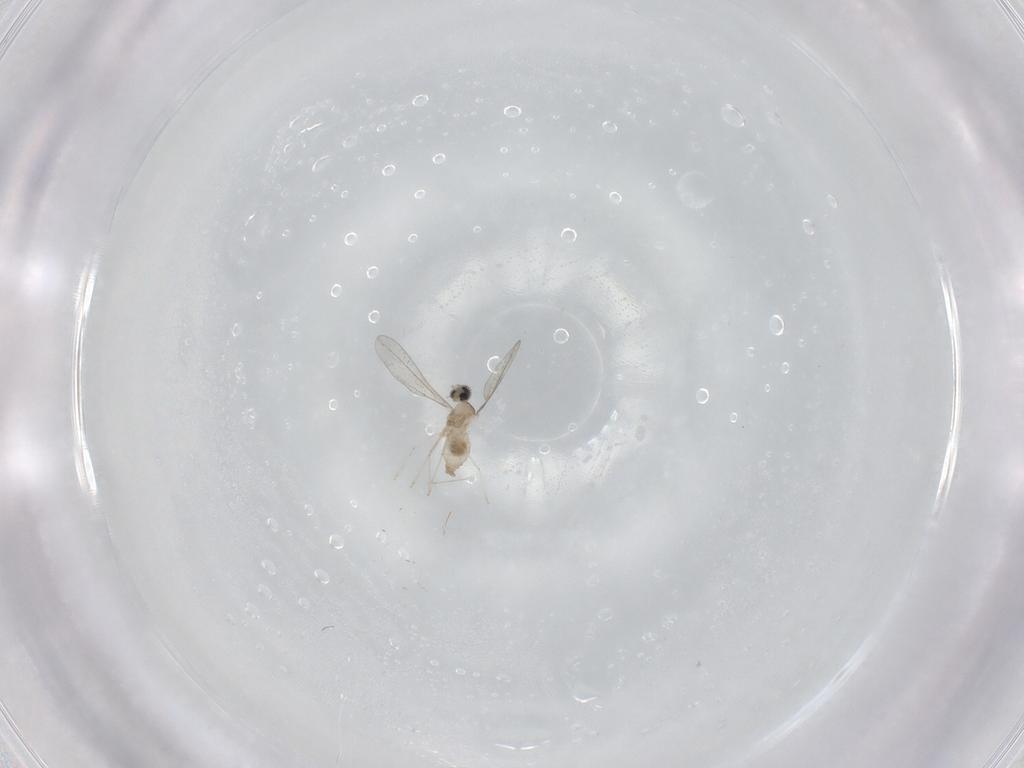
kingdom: Animalia
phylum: Arthropoda
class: Insecta
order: Diptera
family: Cecidomyiidae
